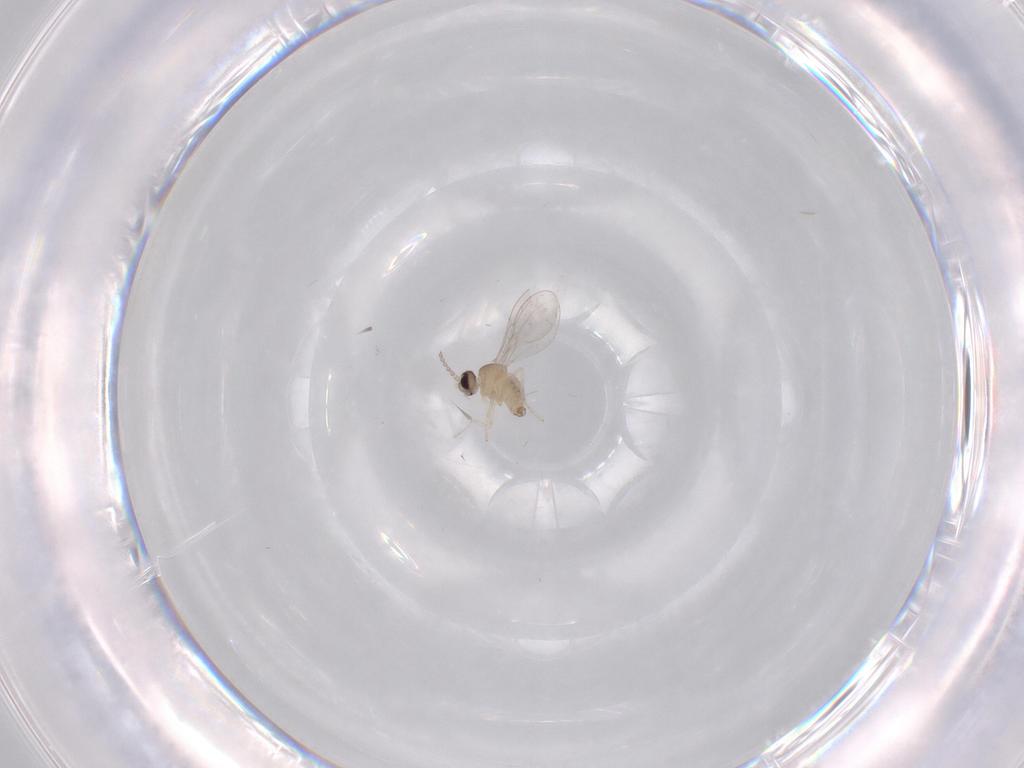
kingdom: Animalia
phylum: Arthropoda
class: Insecta
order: Diptera
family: Cecidomyiidae
